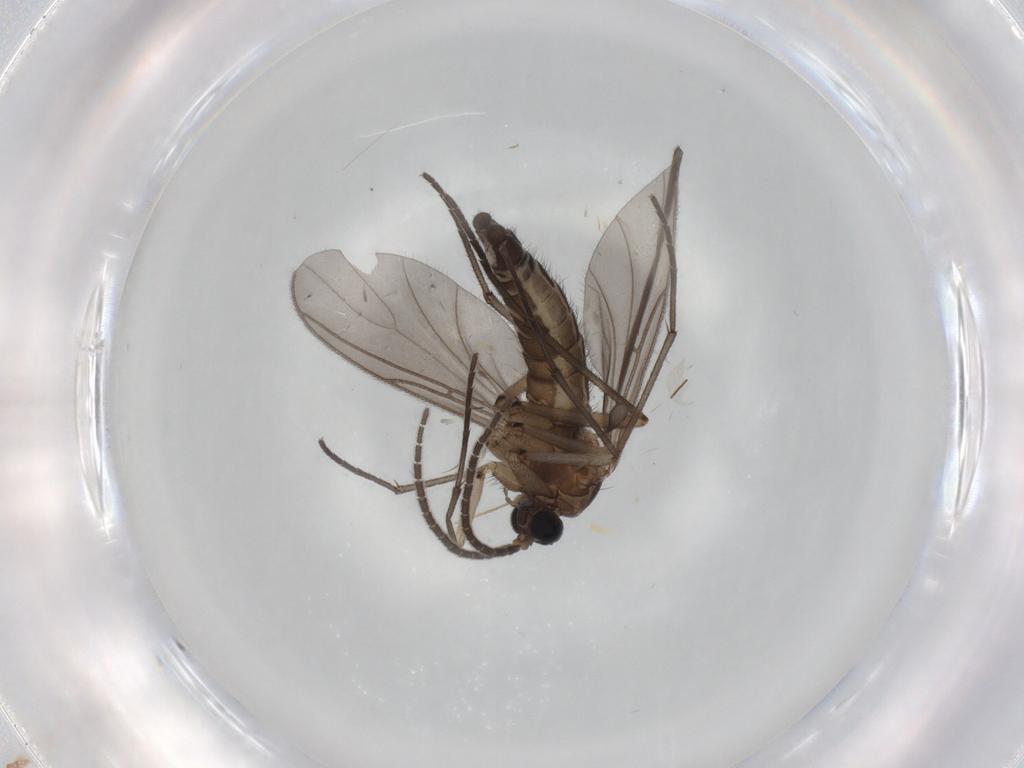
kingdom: Animalia
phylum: Arthropoda
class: Insecta
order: Diptera
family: Sciaridae
